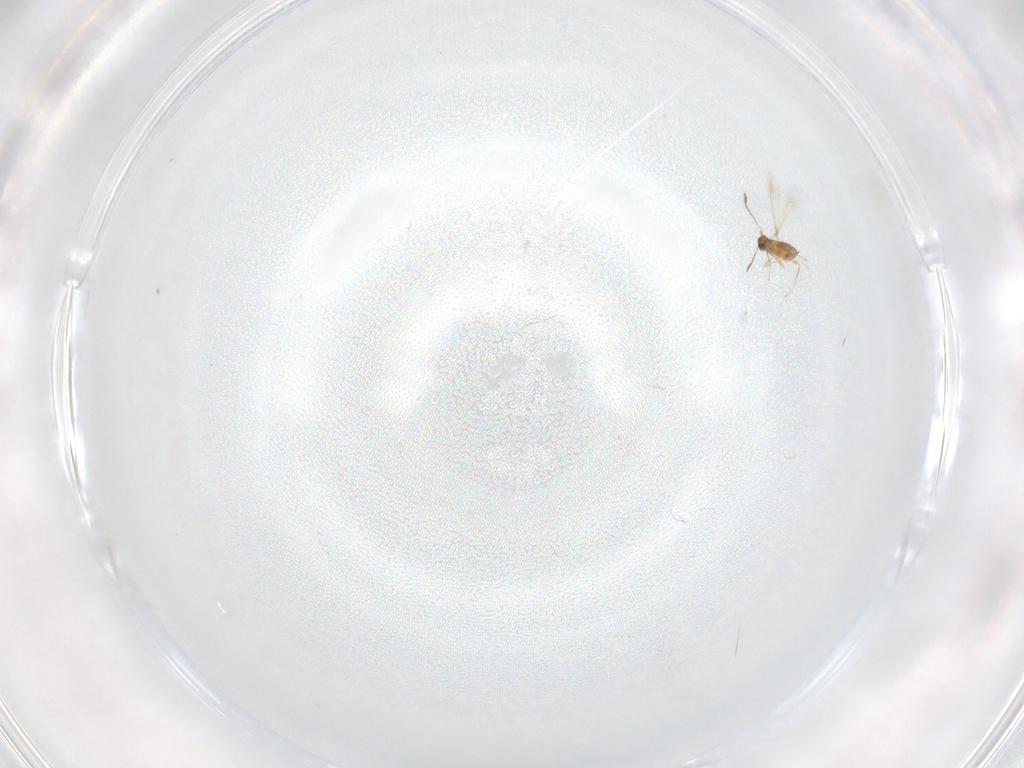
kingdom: Animalia
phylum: Arthropoda
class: Insecta
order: Hymenoptera
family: Mymaridae
